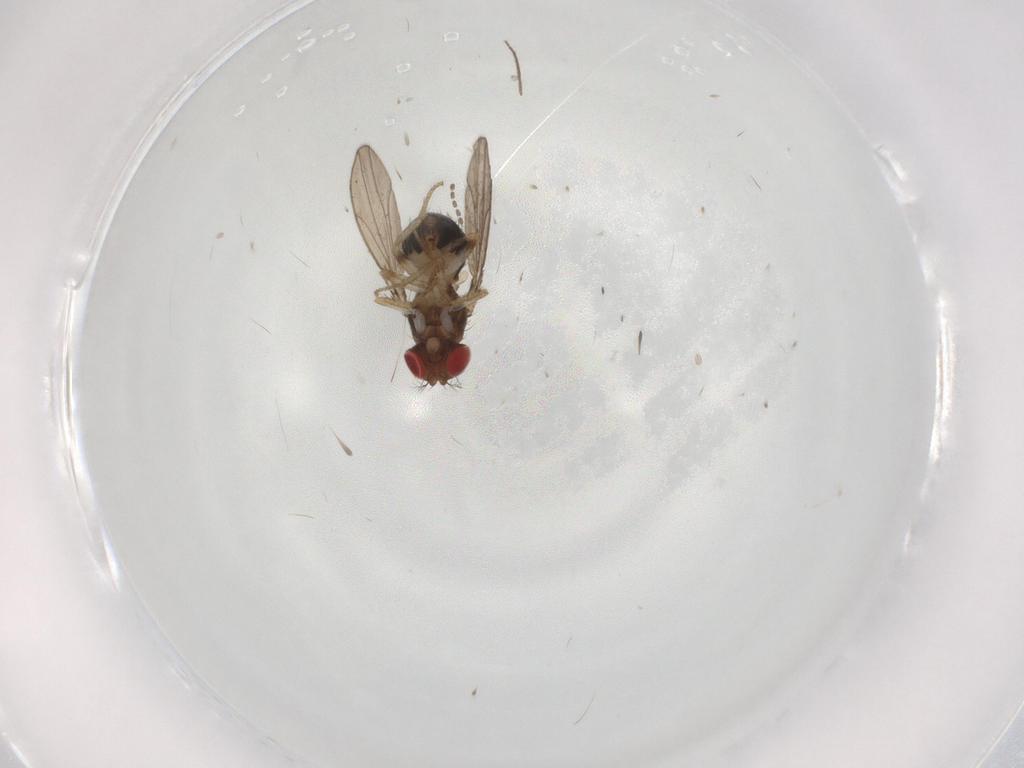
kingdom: Animalia
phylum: Arthropoda
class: Insecta
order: Diptera
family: Drosophilidae
